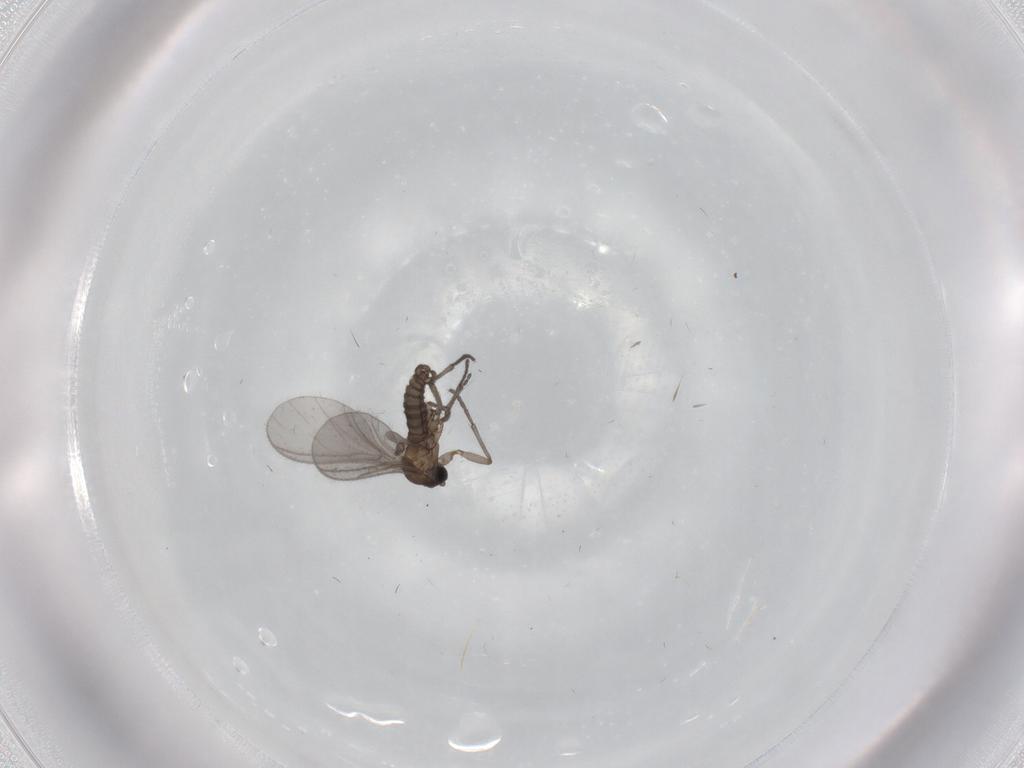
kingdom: Animalia
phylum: Arthropoda
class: Insecta
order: Diptera
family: Sciaridae
